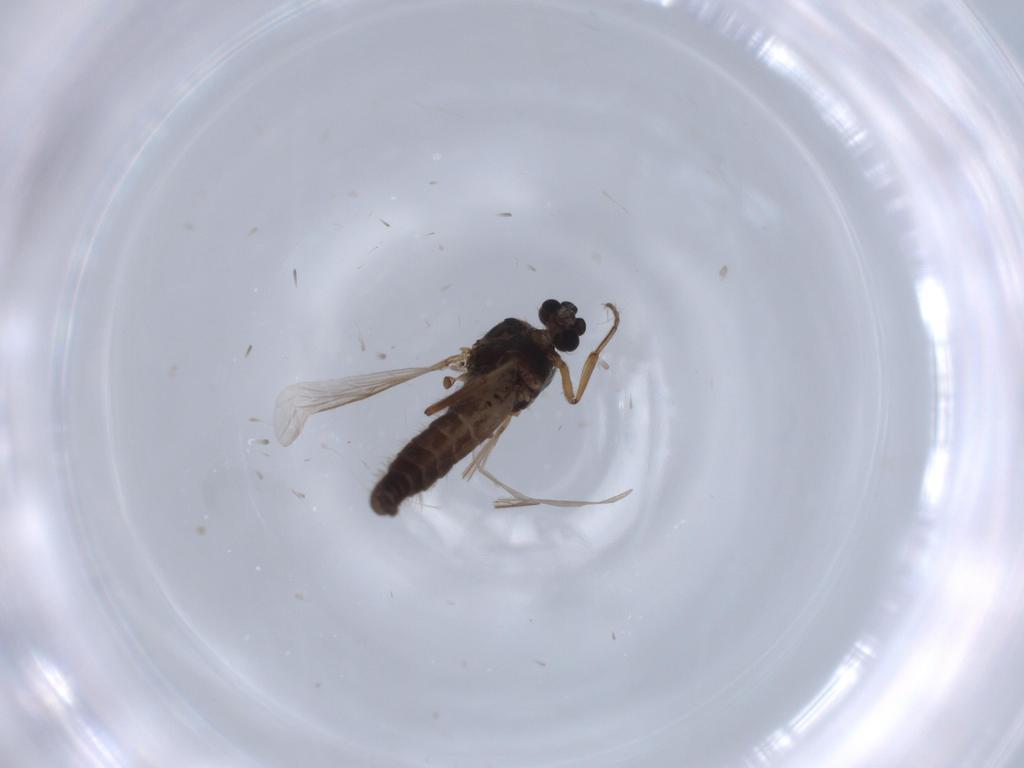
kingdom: Animalia
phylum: Arthropoda
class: Insecta
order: Diptera
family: Ceratopogonidae
